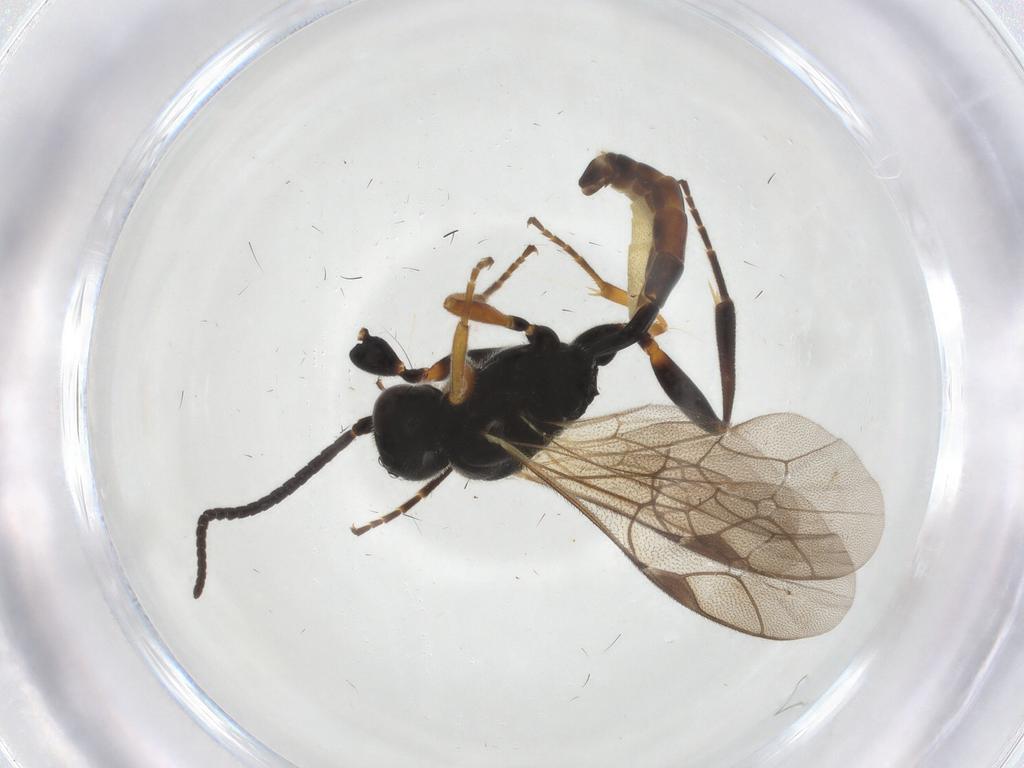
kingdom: Animalia
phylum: Arthropoda
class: Insecta
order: Hymenoptera
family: Ichneumonidae
